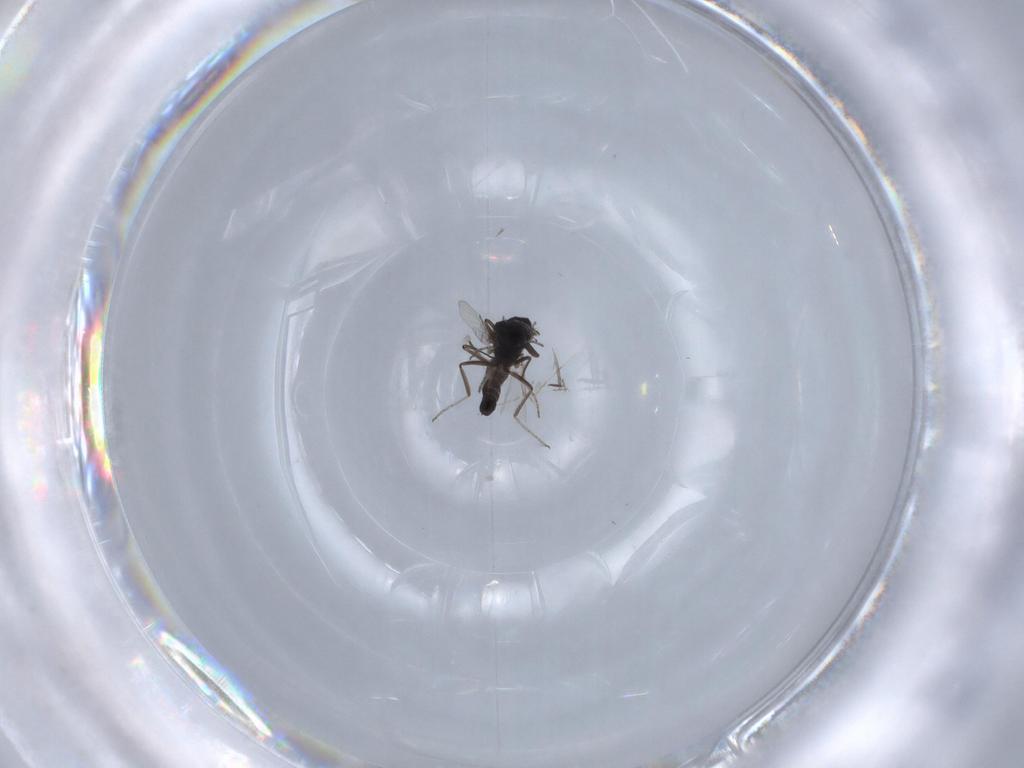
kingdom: Animalia
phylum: Arthropoda
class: Insecta
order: Diptera
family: Ceratopogonidae
